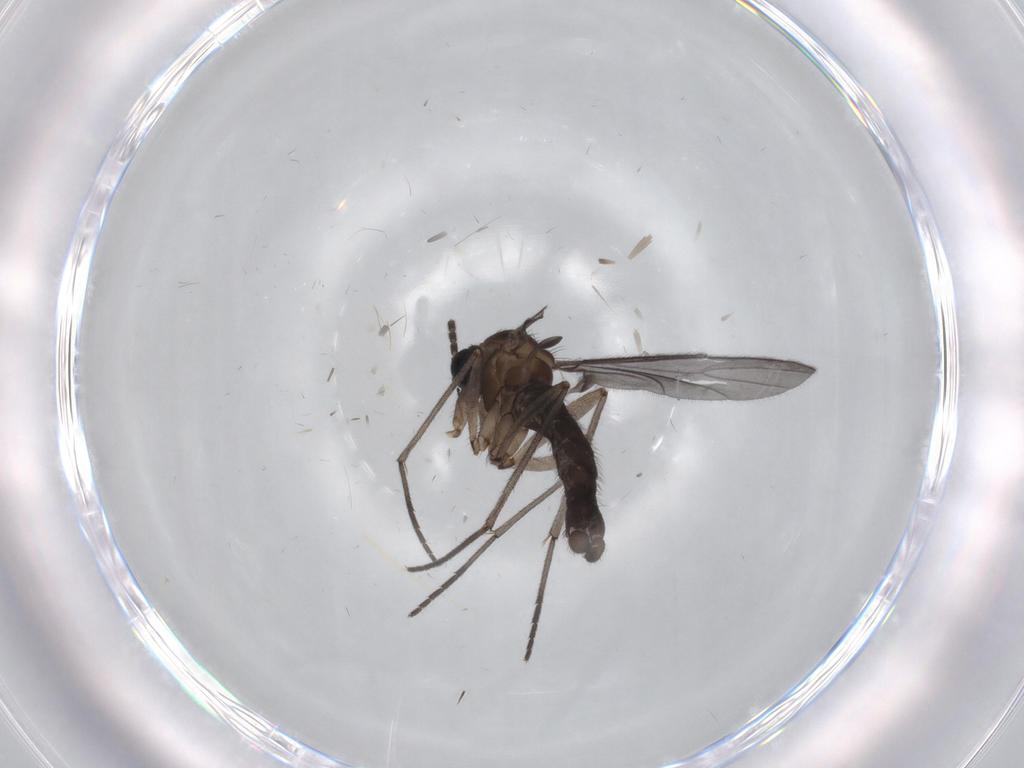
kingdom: Animalia
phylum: Arthropoda
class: Insecta
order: Diptera
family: Sciaridae
